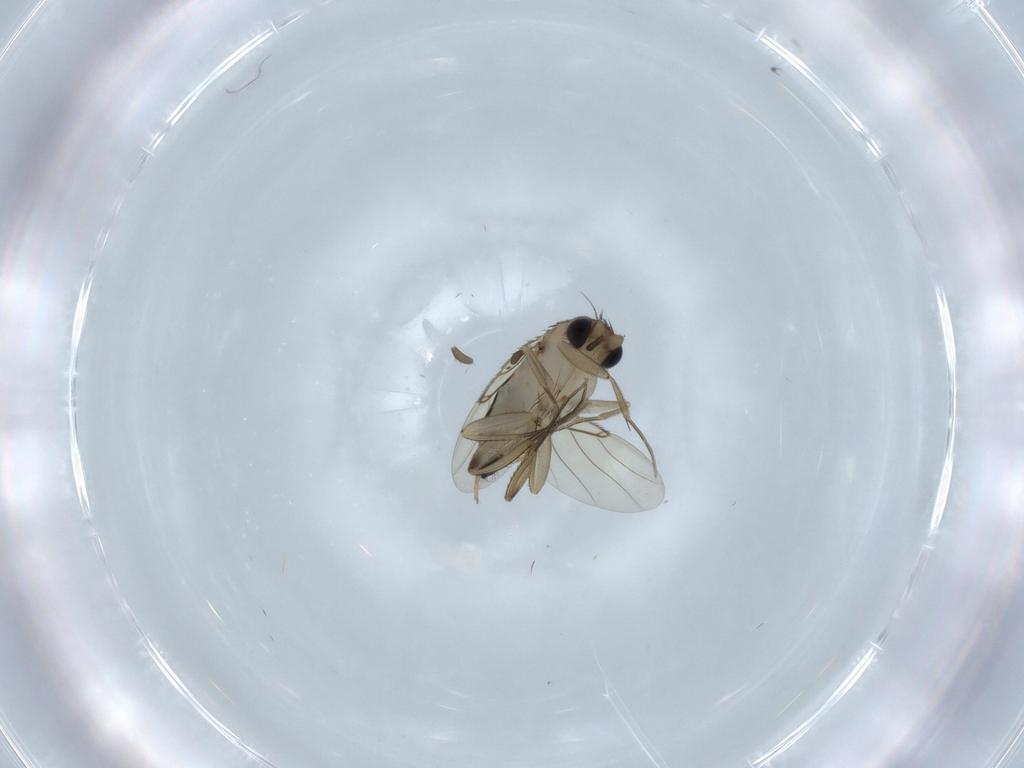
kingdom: Animalia
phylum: Arthropoda
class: Insecta
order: Diptera
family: Phoridae
